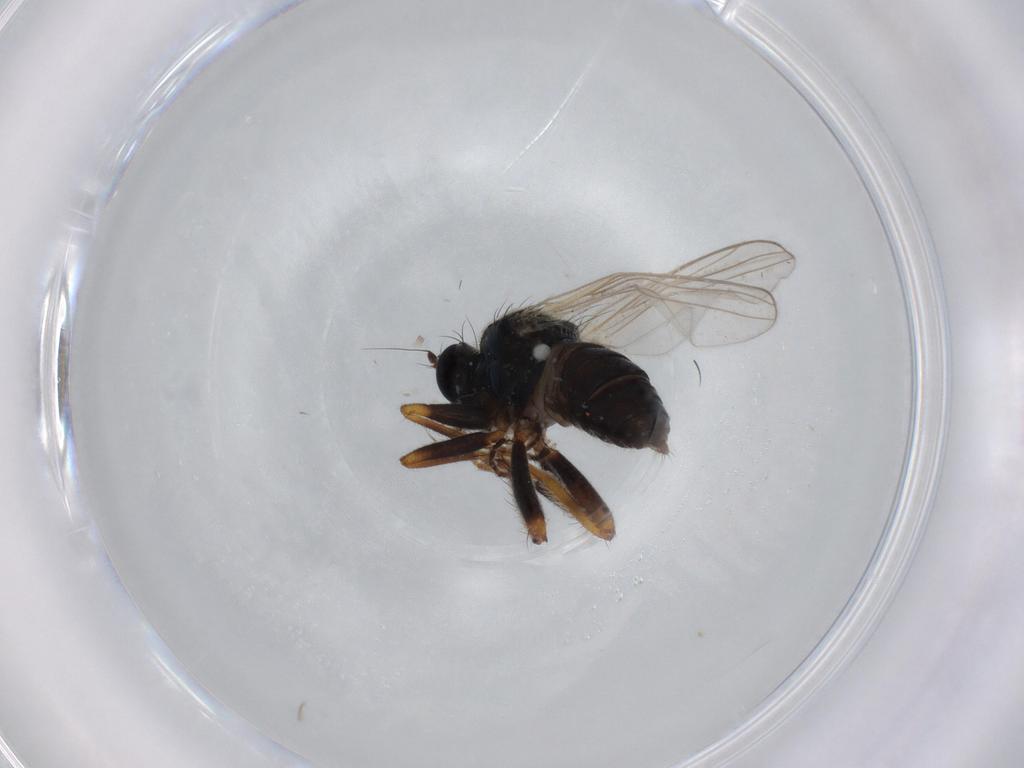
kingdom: Animalia
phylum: Arthropoda
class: Insecta
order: Diptera
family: Hybotidae
